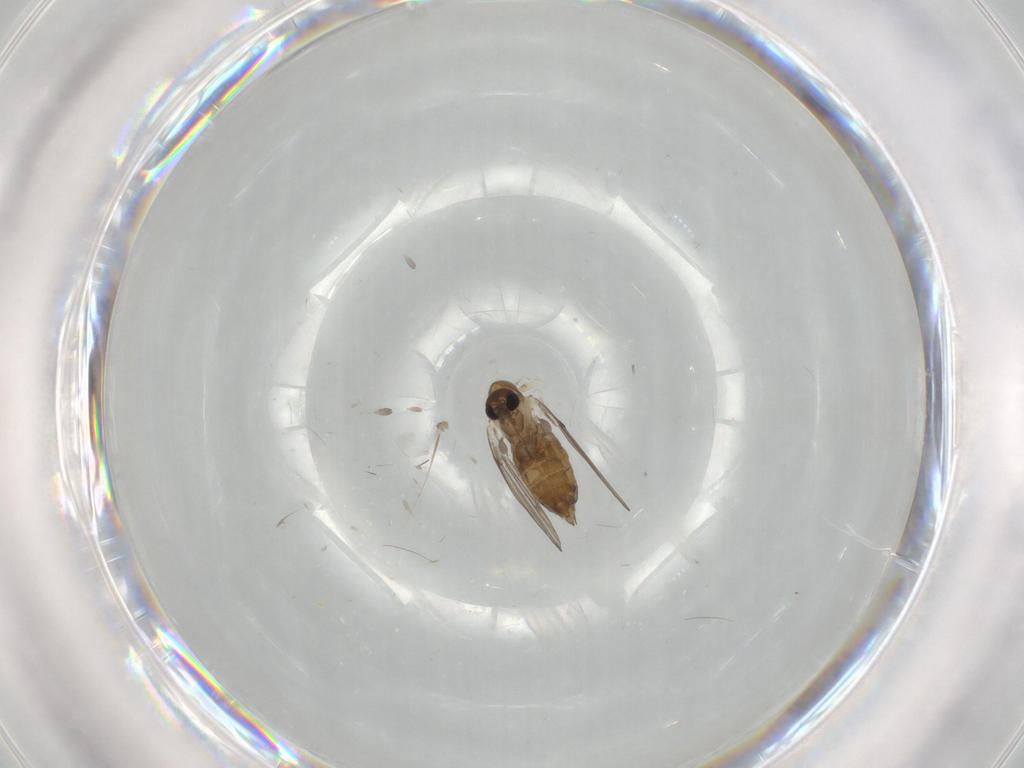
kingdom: Animalia
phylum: Arthropoda
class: Insecta
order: Diptera
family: Psychodidae
